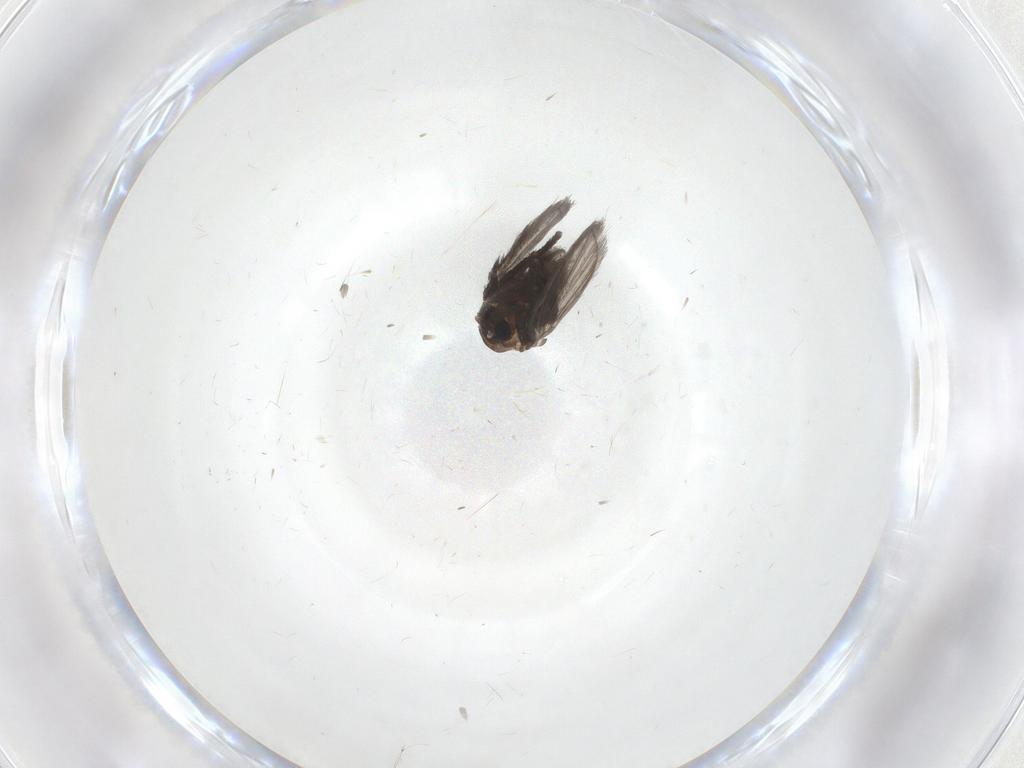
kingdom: Animalia
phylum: Arthropoda
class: Insecta
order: Diptera
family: Psychodidae
